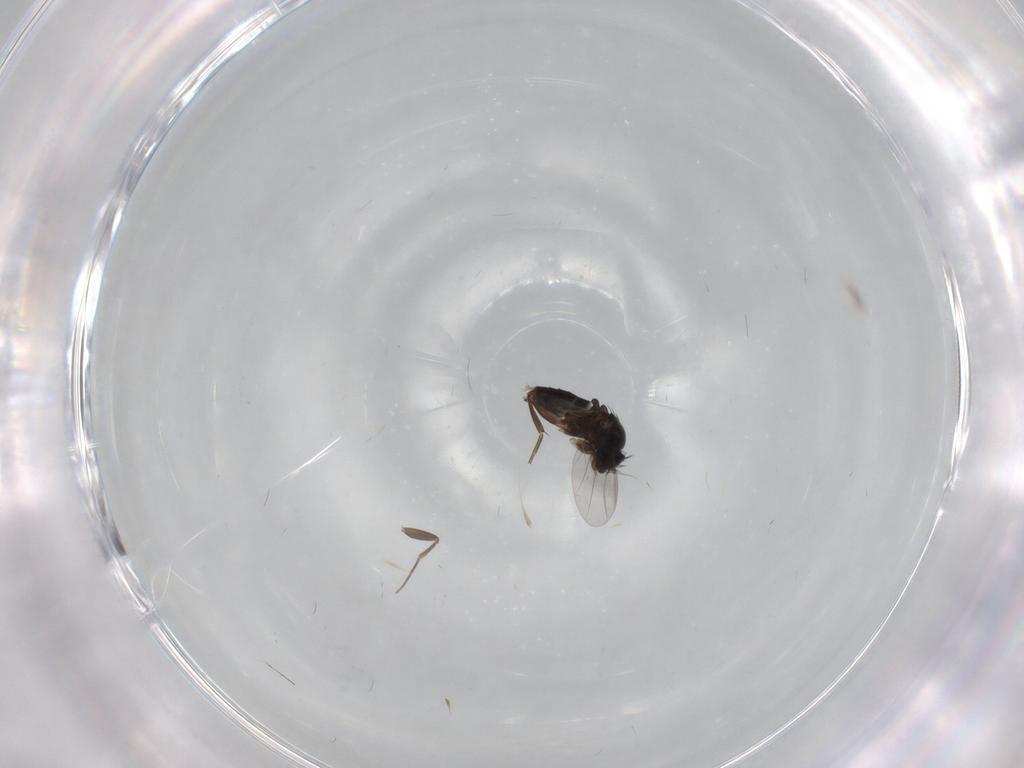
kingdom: Animalia
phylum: Arthropoda
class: Insecta
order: Diptera
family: Phoridae
